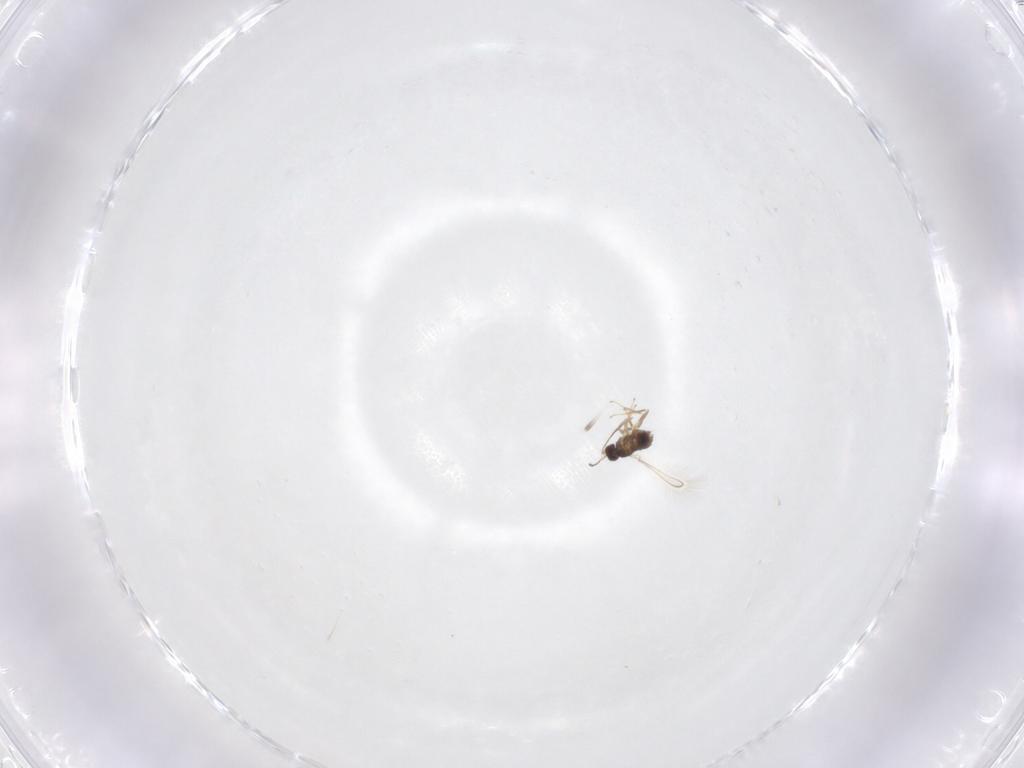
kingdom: Animalia
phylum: Arthropoda
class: Insecta
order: Hymenoptera
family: Mymaridae
